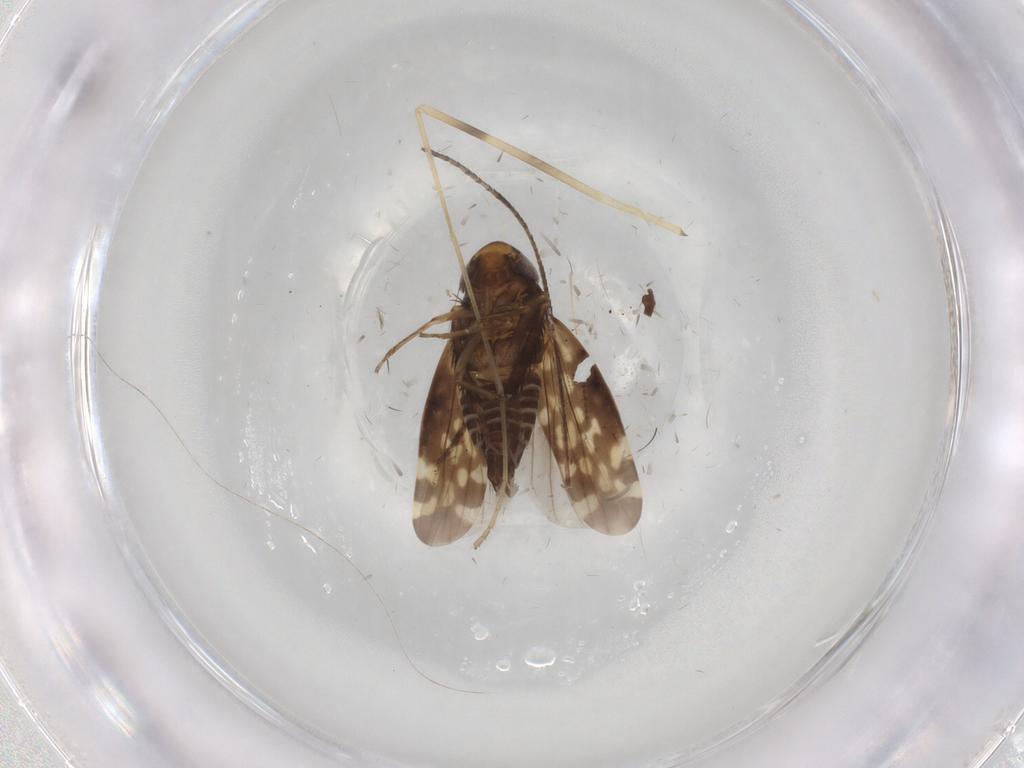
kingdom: Animalia
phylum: Arthropoda
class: Insecta
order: Hemiptera
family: Cicadellidae
